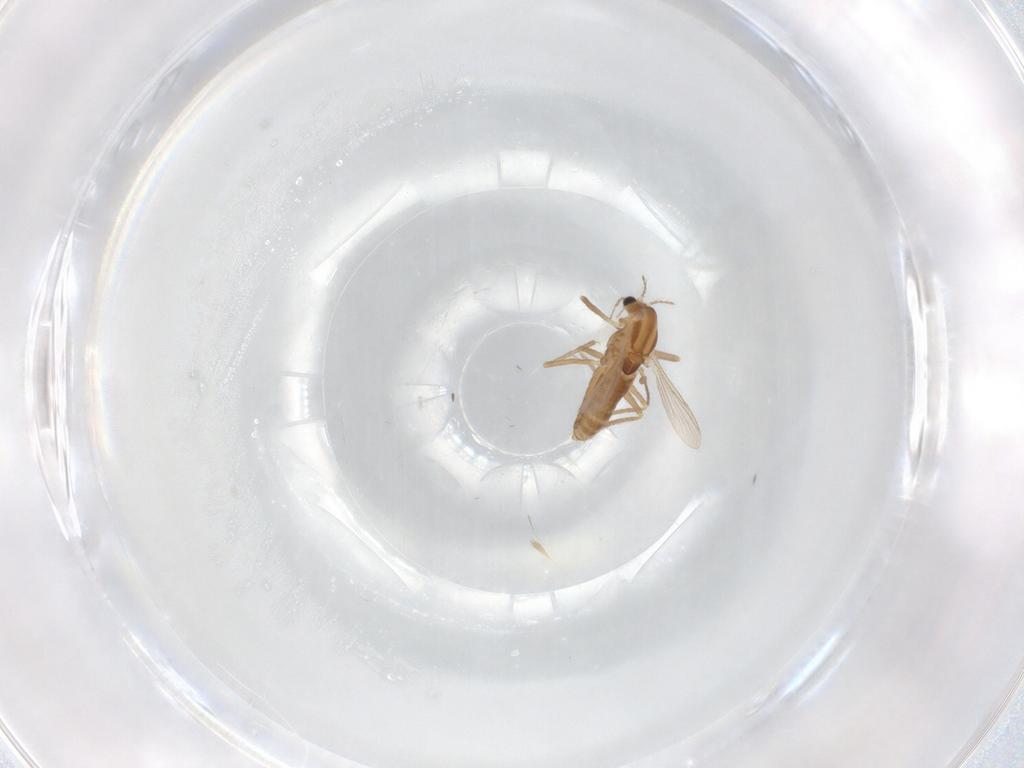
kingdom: Animalia
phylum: Arthropoda
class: Insecta
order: Diptera
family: Chironomidae
